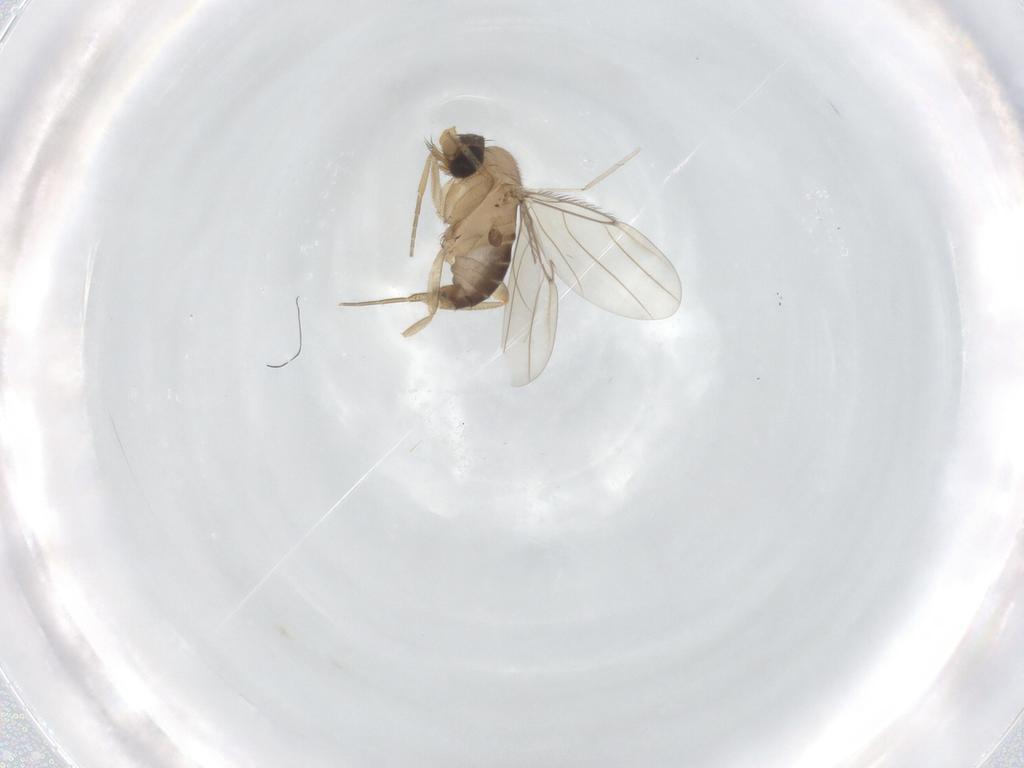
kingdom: Animalia
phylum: Arthropoda
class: Insecta
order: Diptera
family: Cecidomyiidae
